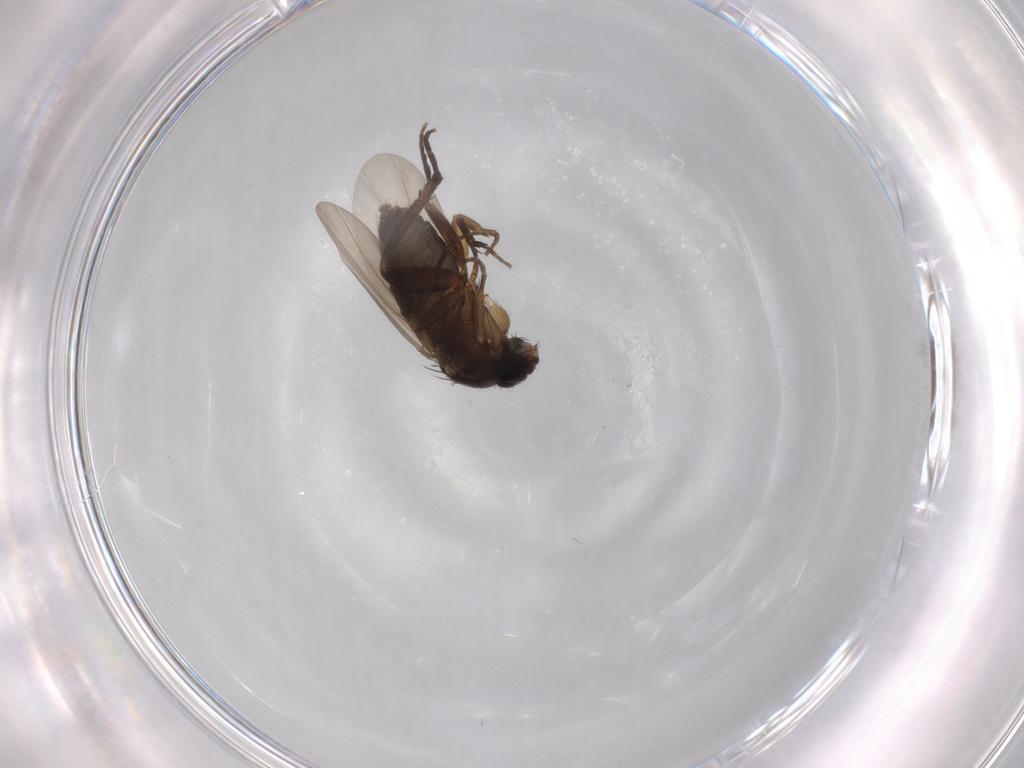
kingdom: Animalia
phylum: Arthropoda
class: Insecta
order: Diptera
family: Phoridae
